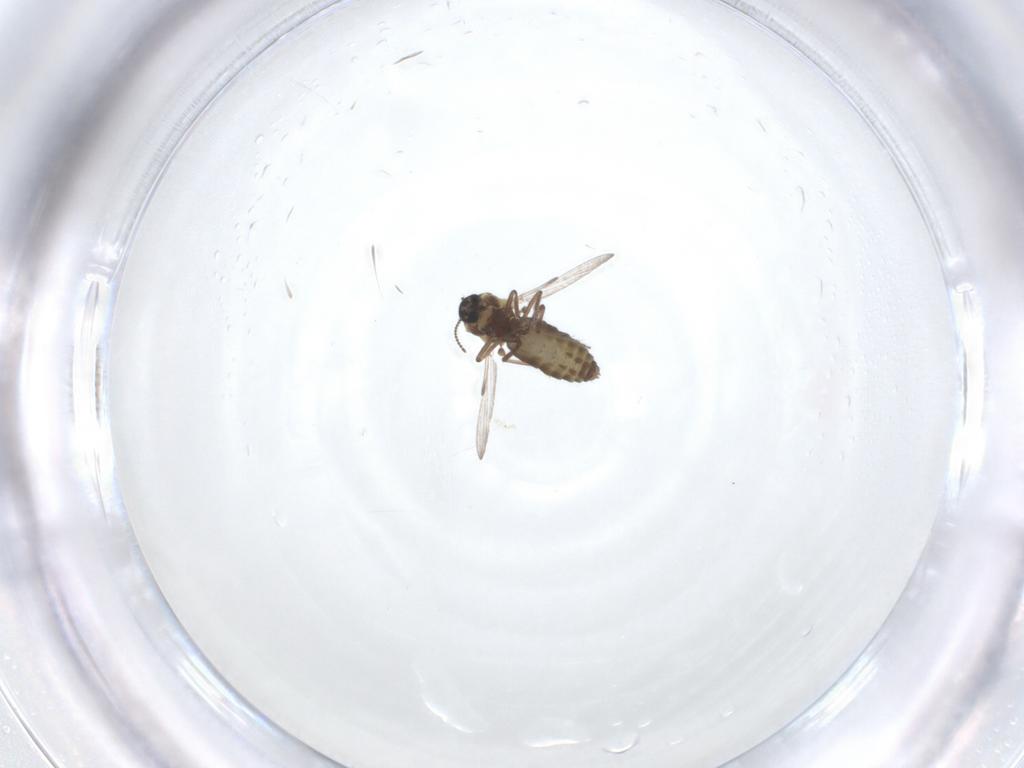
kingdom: Animalia
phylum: Arthropoda
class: Insecta
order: Diptera
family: Ceratopogonidae
